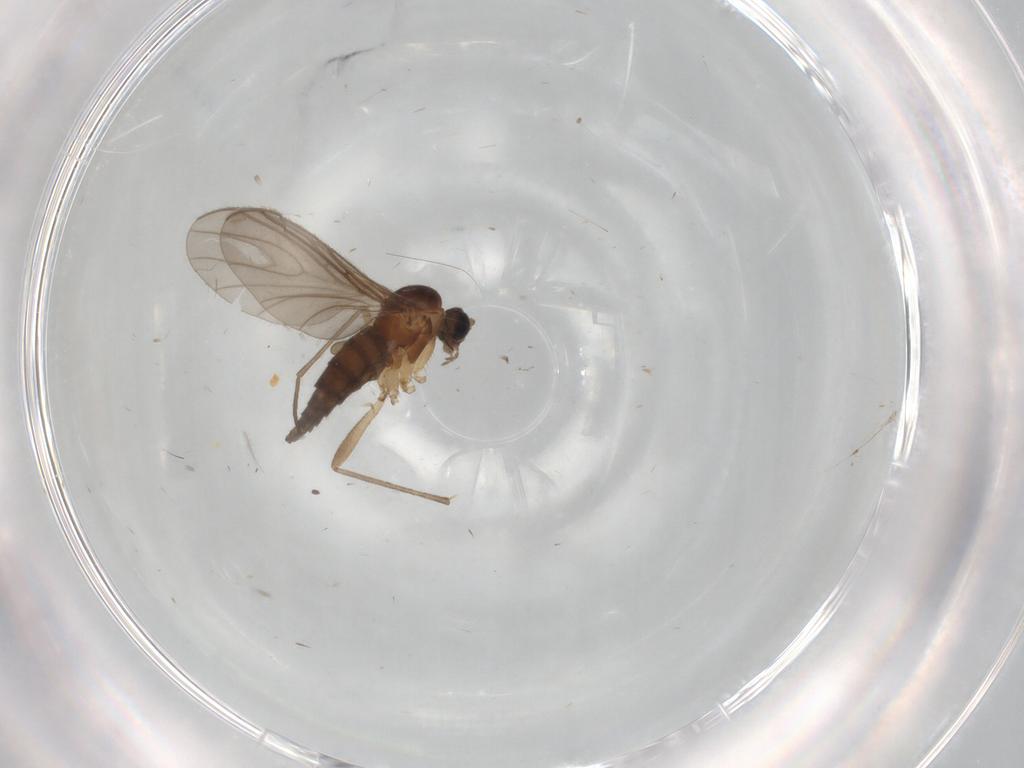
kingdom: Animalia
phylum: Arthropoda
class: Insecta
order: Diptera
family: Sciaridae
